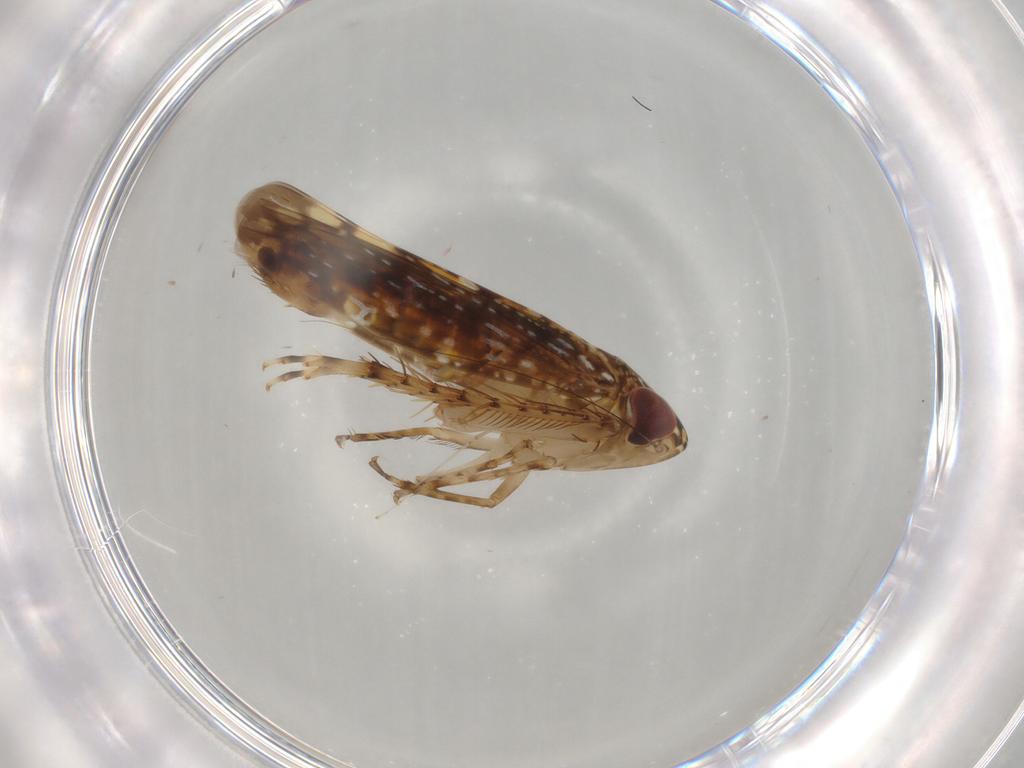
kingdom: Animalia
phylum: Arthropoda
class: Insecta
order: Hemiptera
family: Cicadellidae
